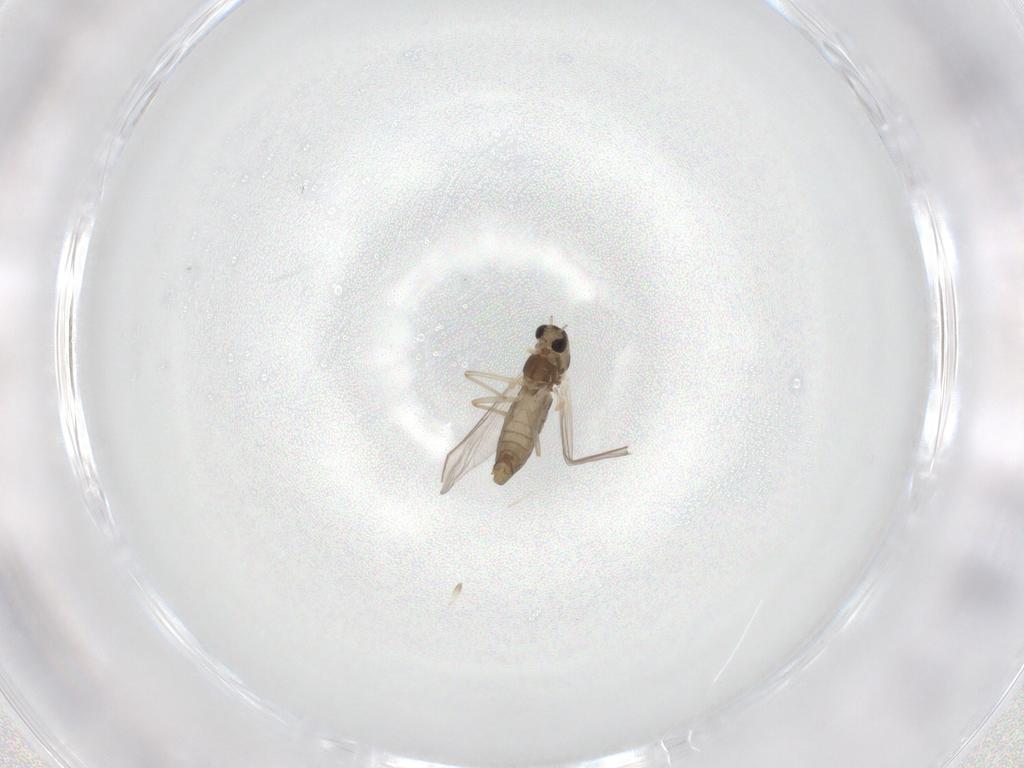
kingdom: Animalia
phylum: Arthropoda
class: Insecta
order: Diptera
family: Chironomidae
